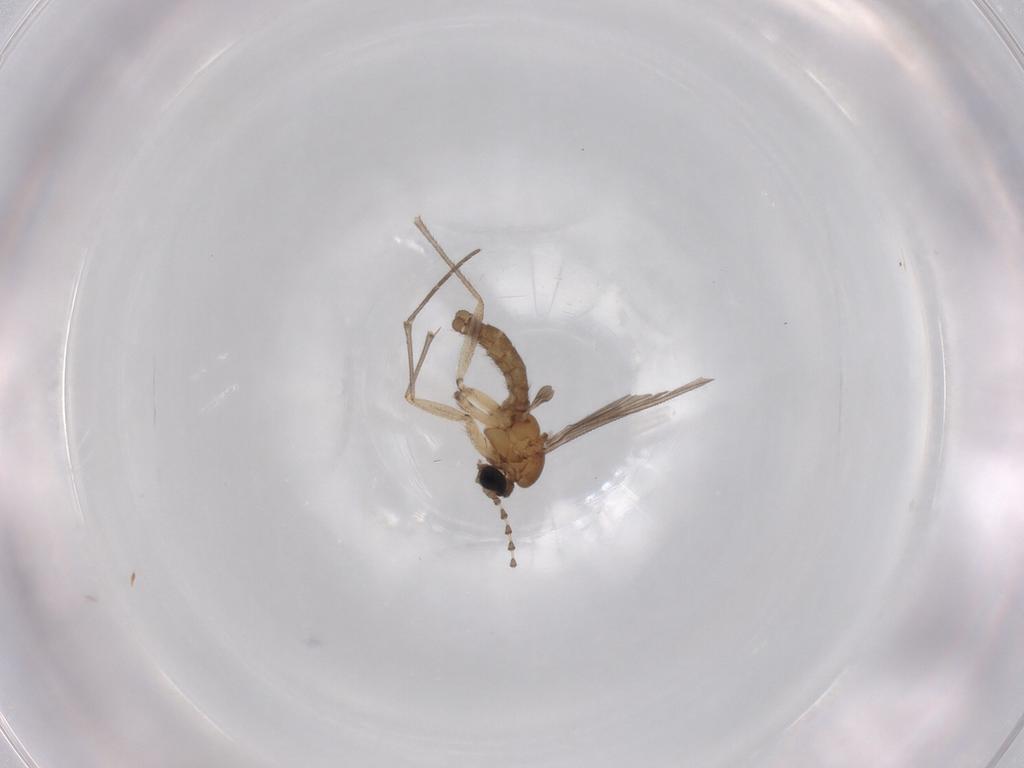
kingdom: Animalia
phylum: Arthropoda
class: Insecta
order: Diptera
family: Sciaridae
